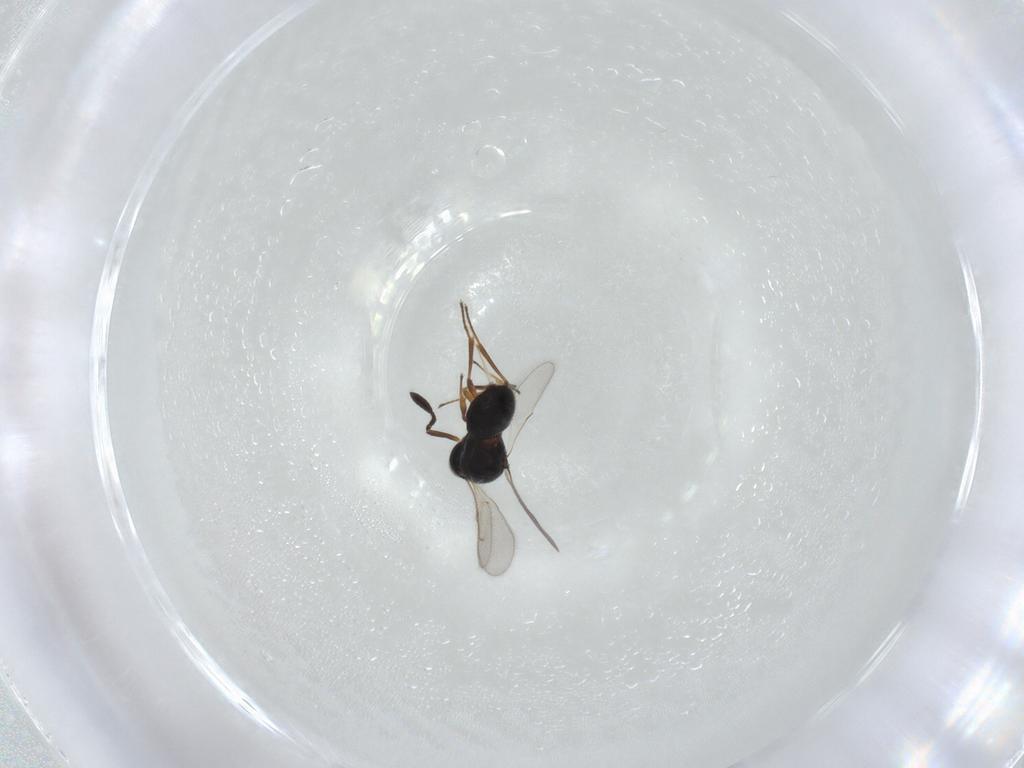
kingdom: Animalia
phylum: Arthropoda
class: Insecta
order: Hymenoptera
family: Scelionidae
